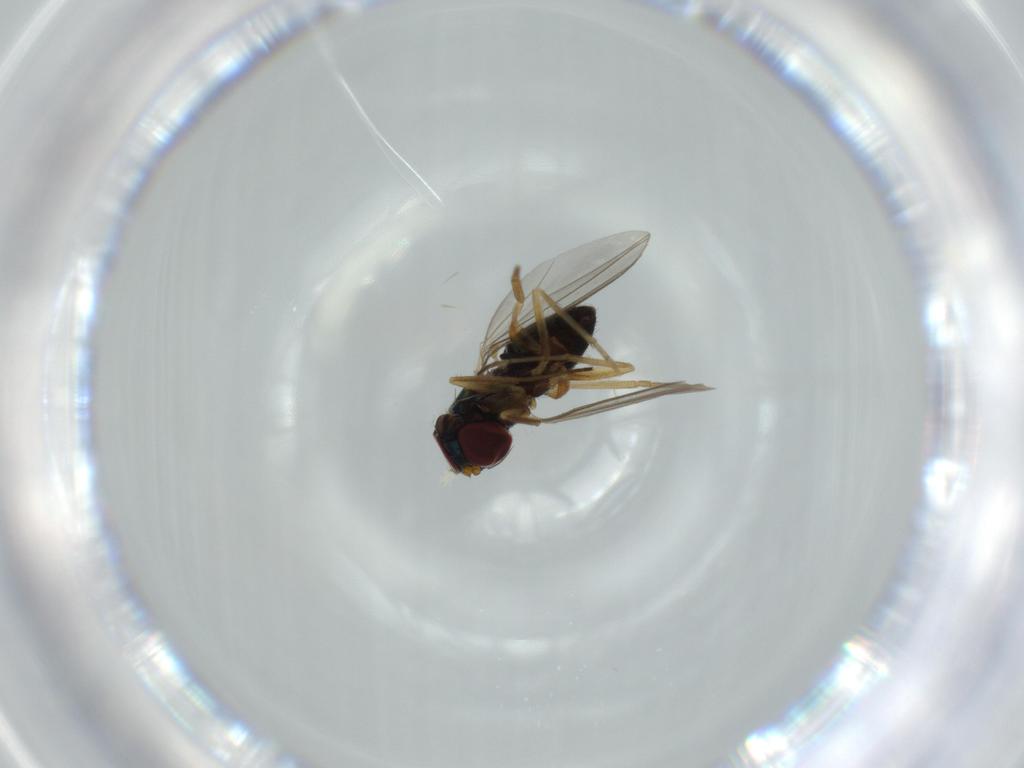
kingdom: Animalia
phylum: Arthropoda
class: Insecta
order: Diptera
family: Dolichopodidae
